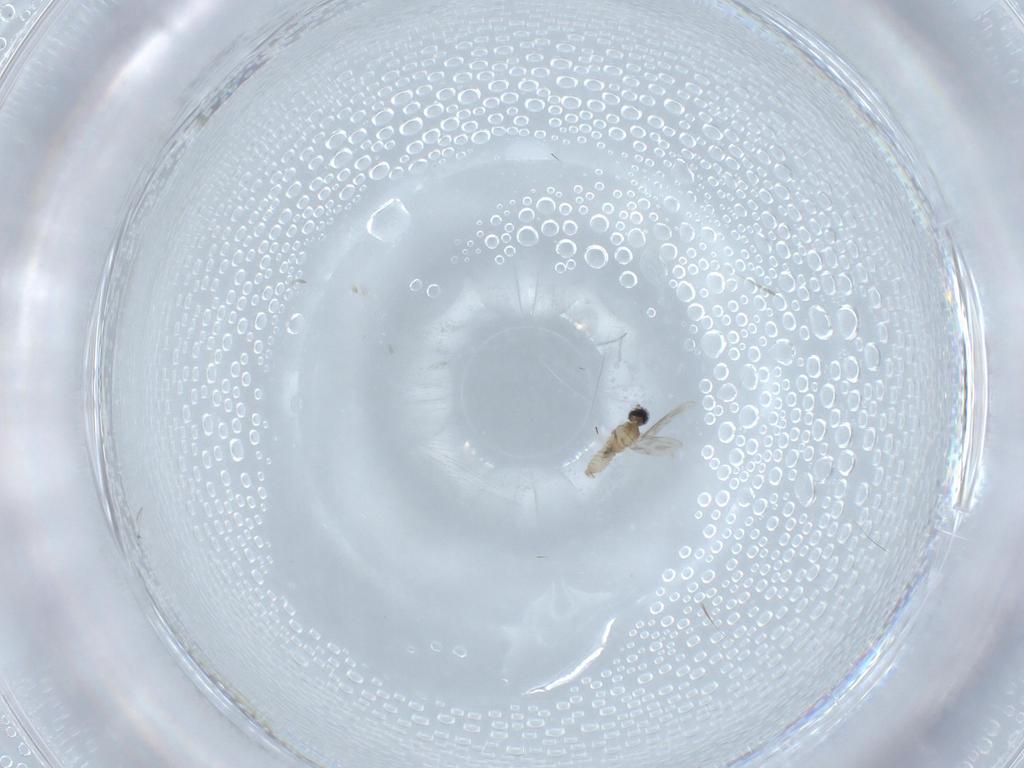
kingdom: Animalia
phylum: Arthropoda
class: Insecta
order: Diptera
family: Cecidomyiidae
